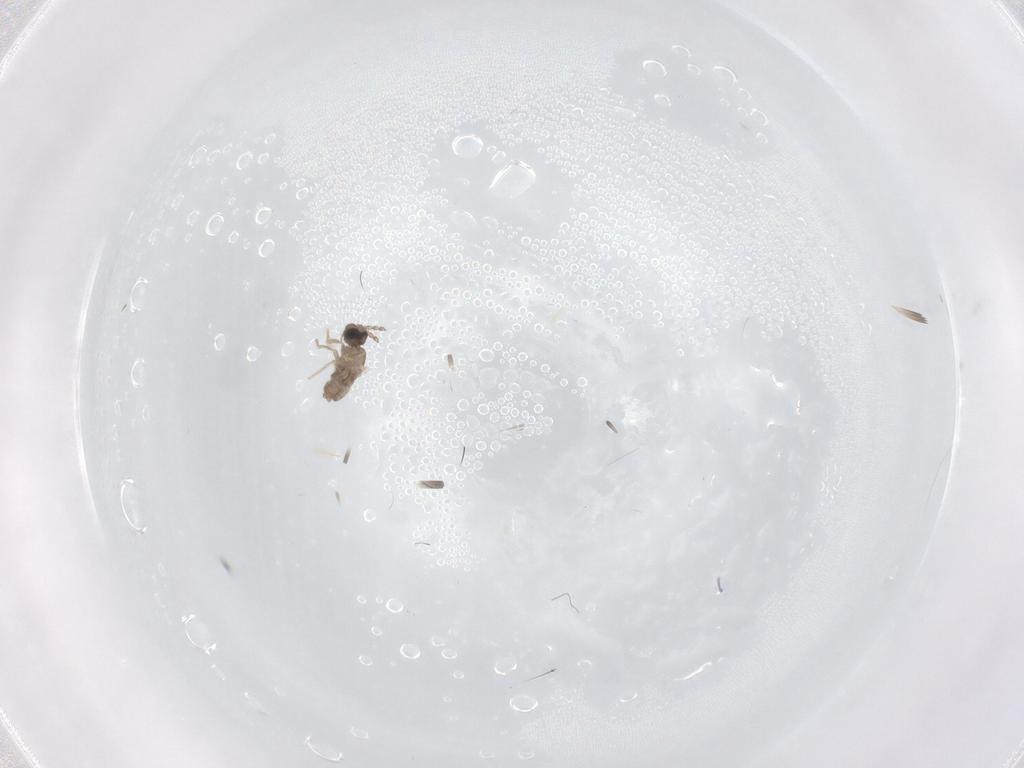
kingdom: Animalia
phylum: Arthropoda
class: Insecta
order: Diptera
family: Cecidomyiidae
